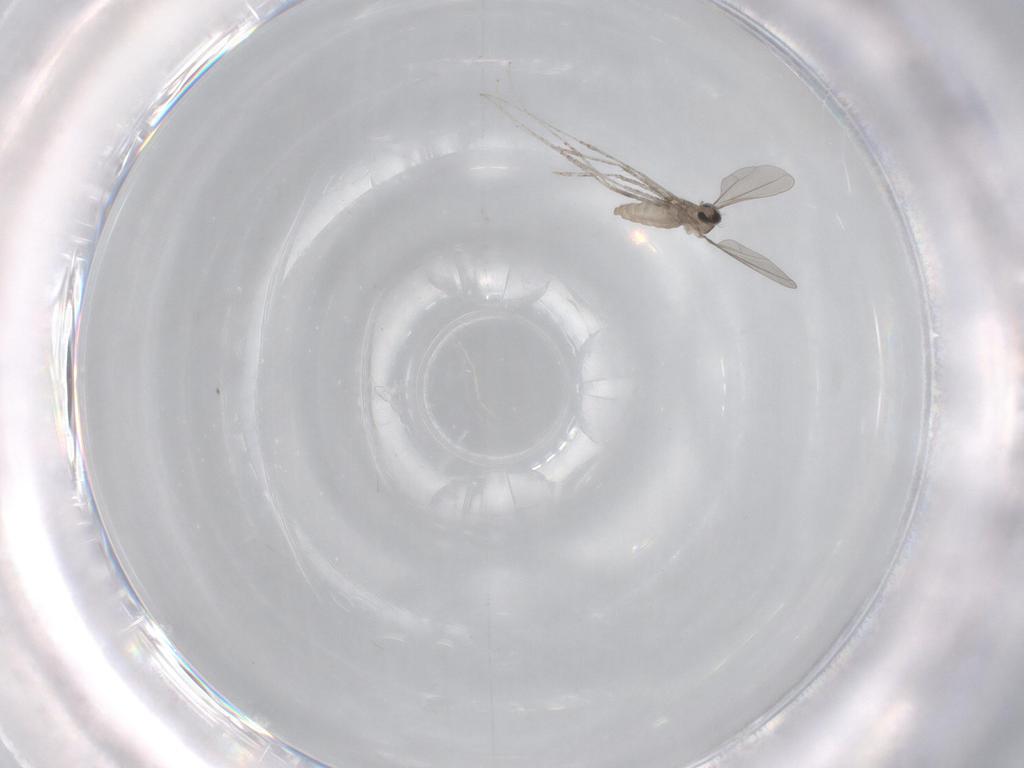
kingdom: Animalia
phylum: Arthropoda
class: Insecta
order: Diptera
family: Cecidomyiidae
